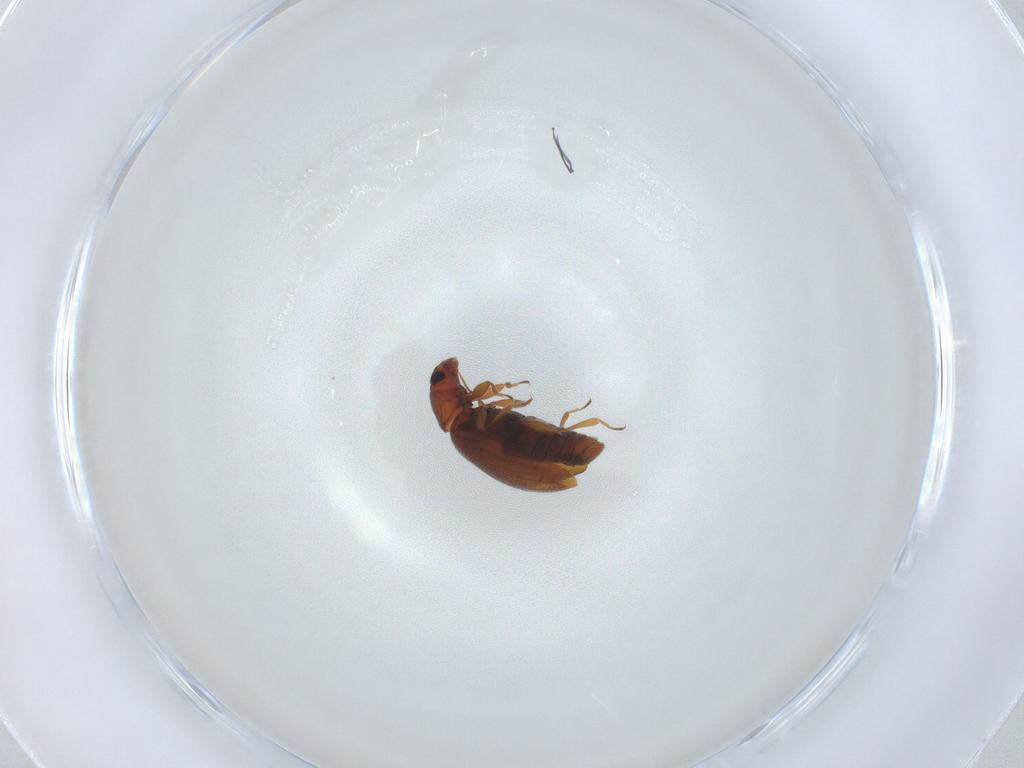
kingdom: Animalia
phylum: Arthropoda
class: Insecta
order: Coleoptera
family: Latridiidae
